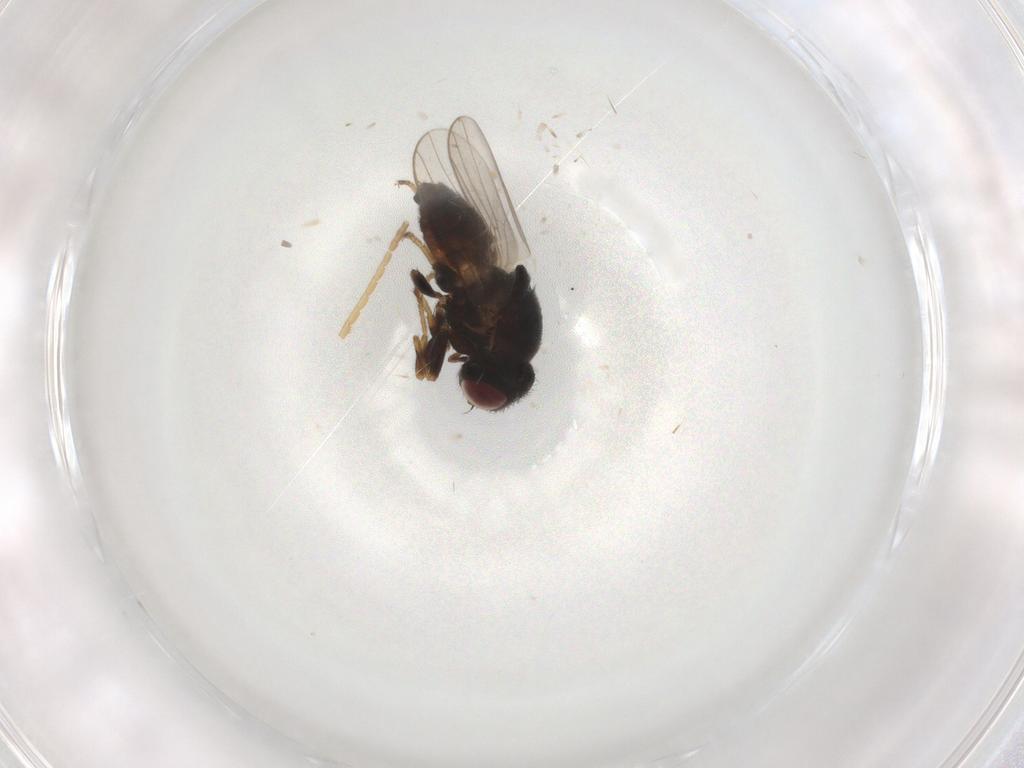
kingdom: Animalia
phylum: Arthropoda
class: Insecta
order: Diptera
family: Chloropidae
